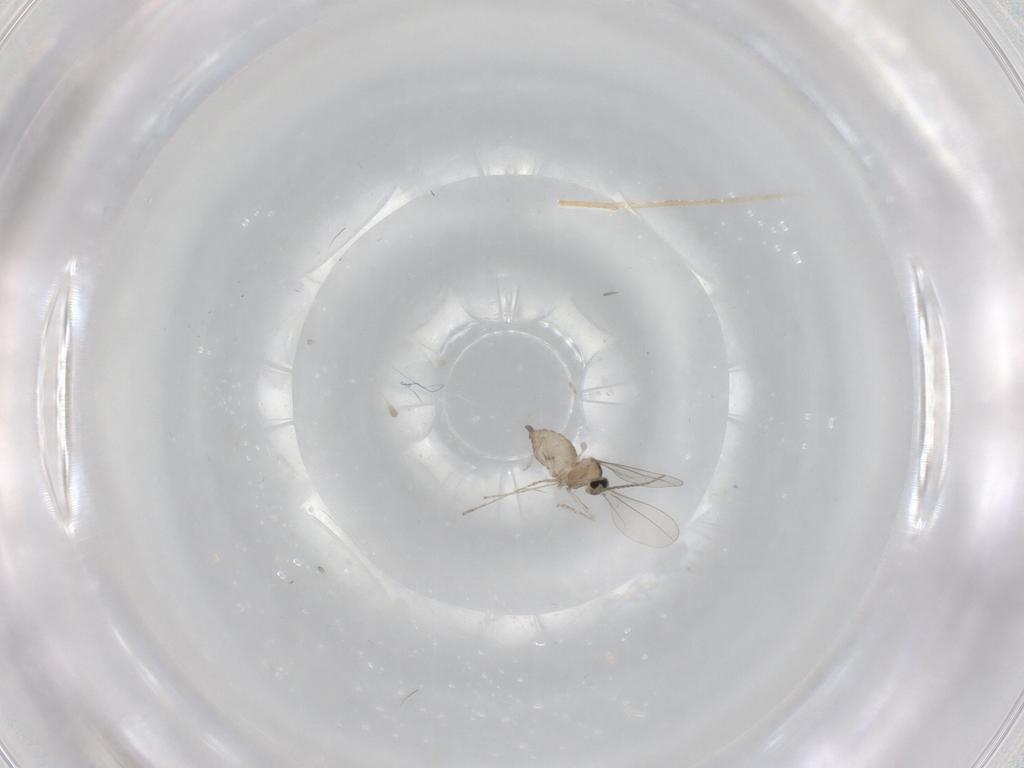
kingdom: Animalia
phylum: Arthropoda
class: Insecta
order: Diptera
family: Cecidomyiidae
